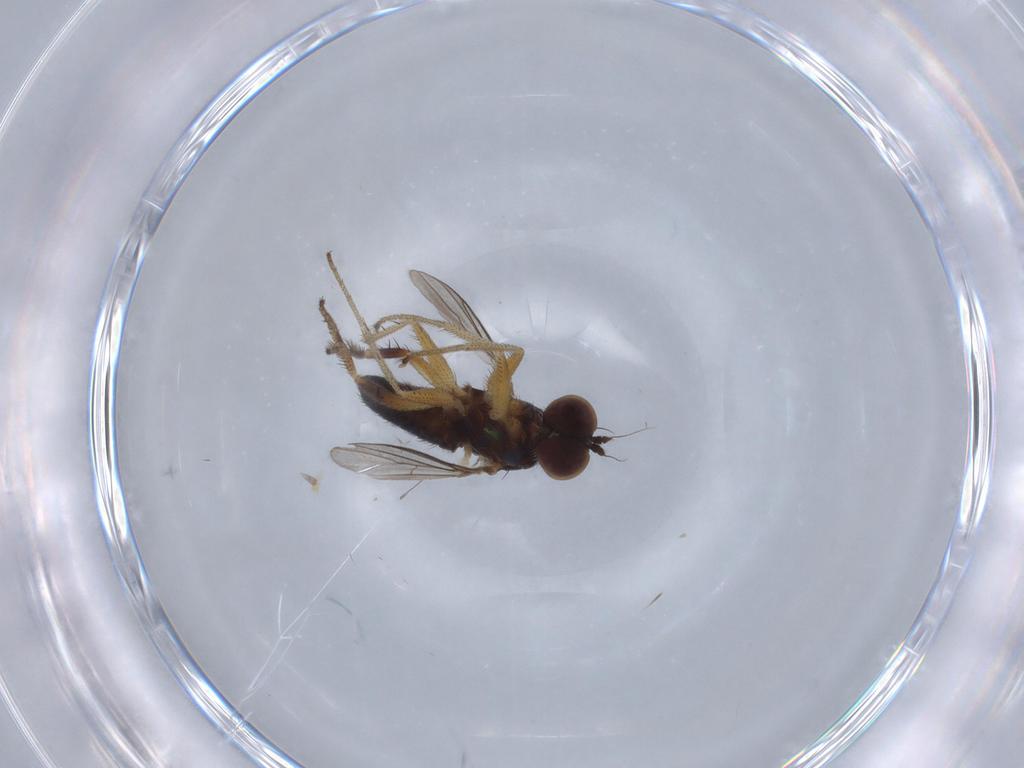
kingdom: Animalia
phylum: Arthropoda
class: Insecta
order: Diptera
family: Ceratopogonidae
